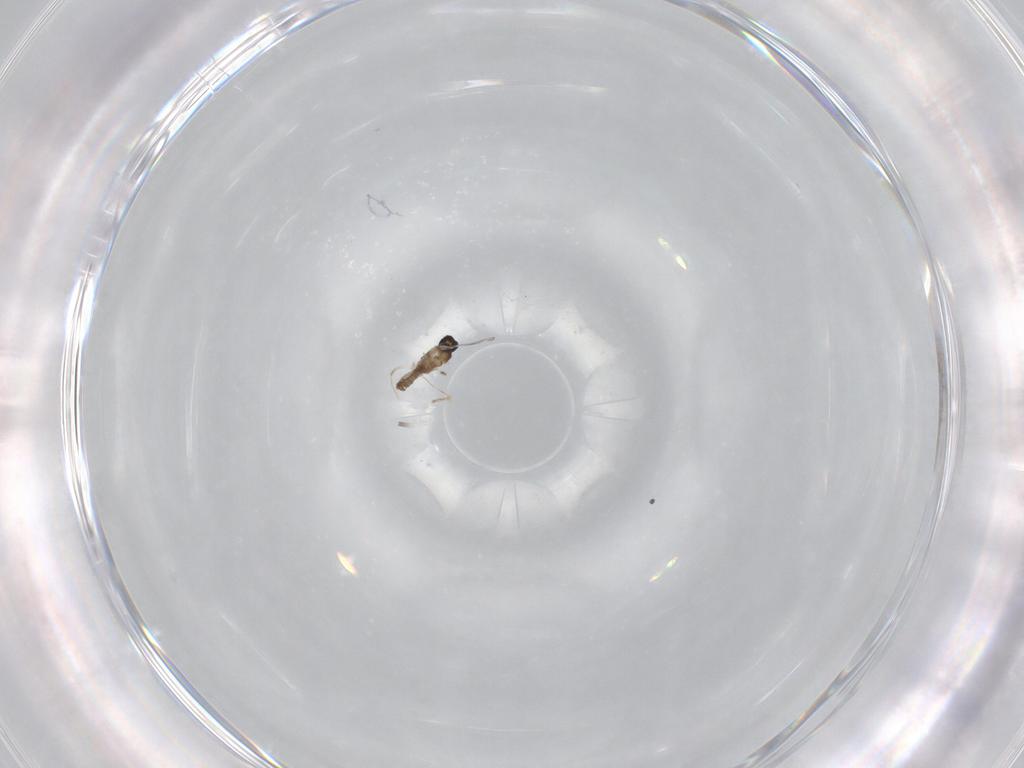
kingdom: Animalia
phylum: Arthropoda
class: Insecta
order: Diptera
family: Cecidomyiidae
